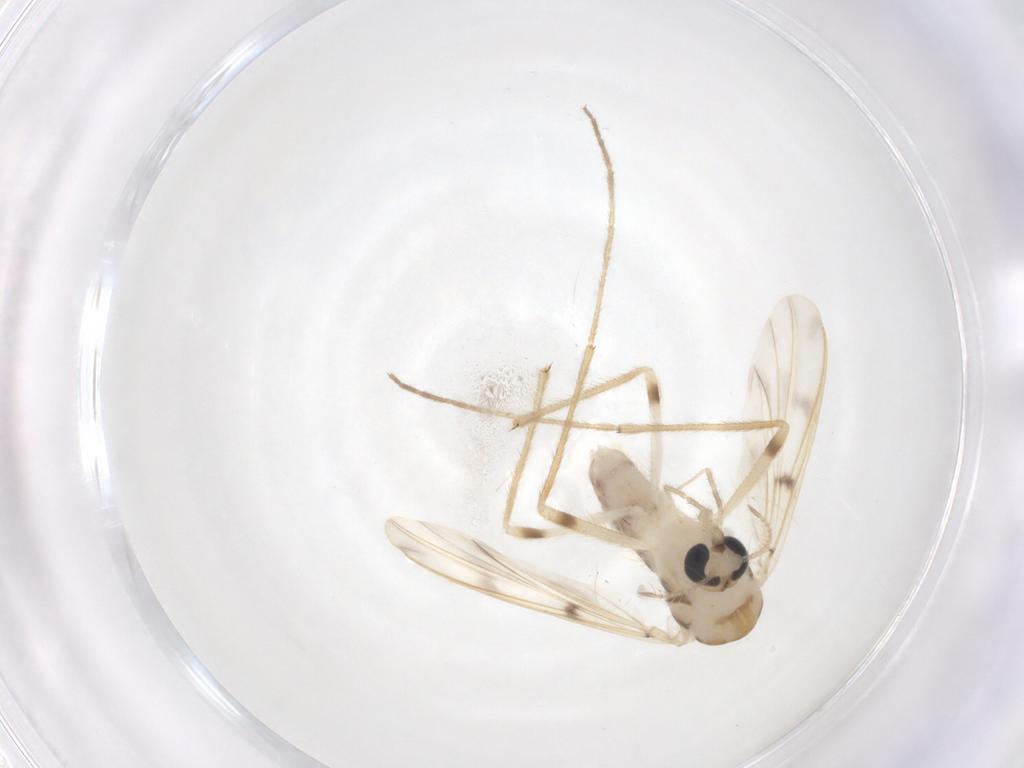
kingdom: Animalia
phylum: Arthropoda
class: Insecta
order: Diptera
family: Chironomidae
